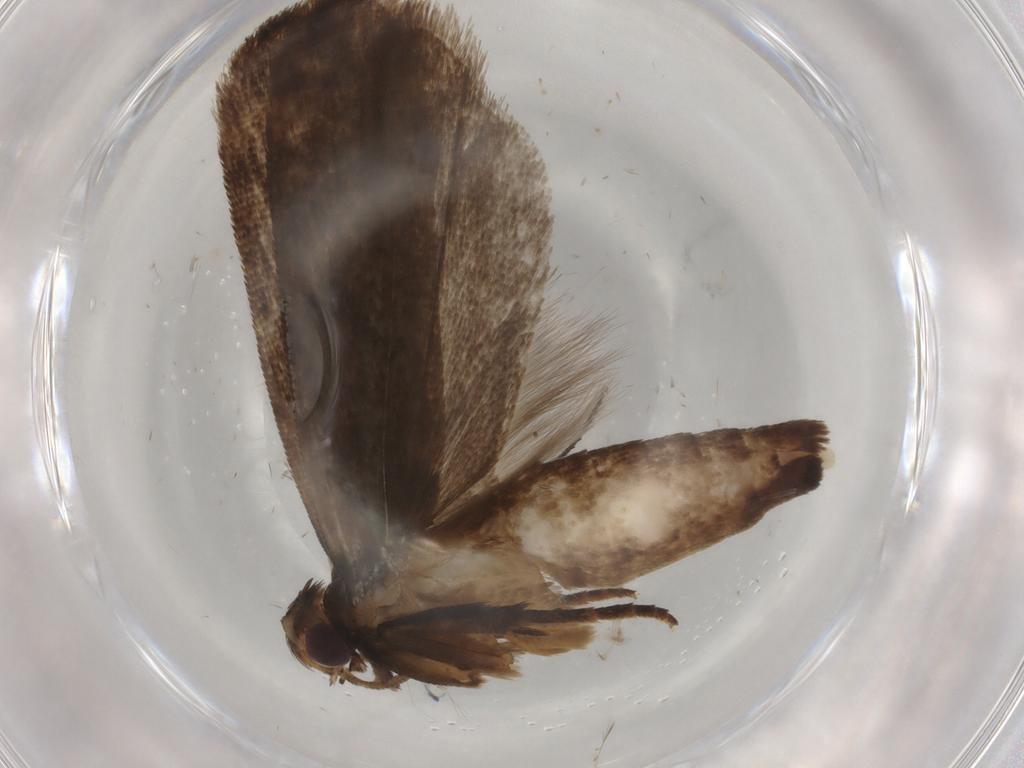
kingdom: Animalia
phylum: Arthropoda
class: Insecta
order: Lepidoptera
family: Gelechiidae
